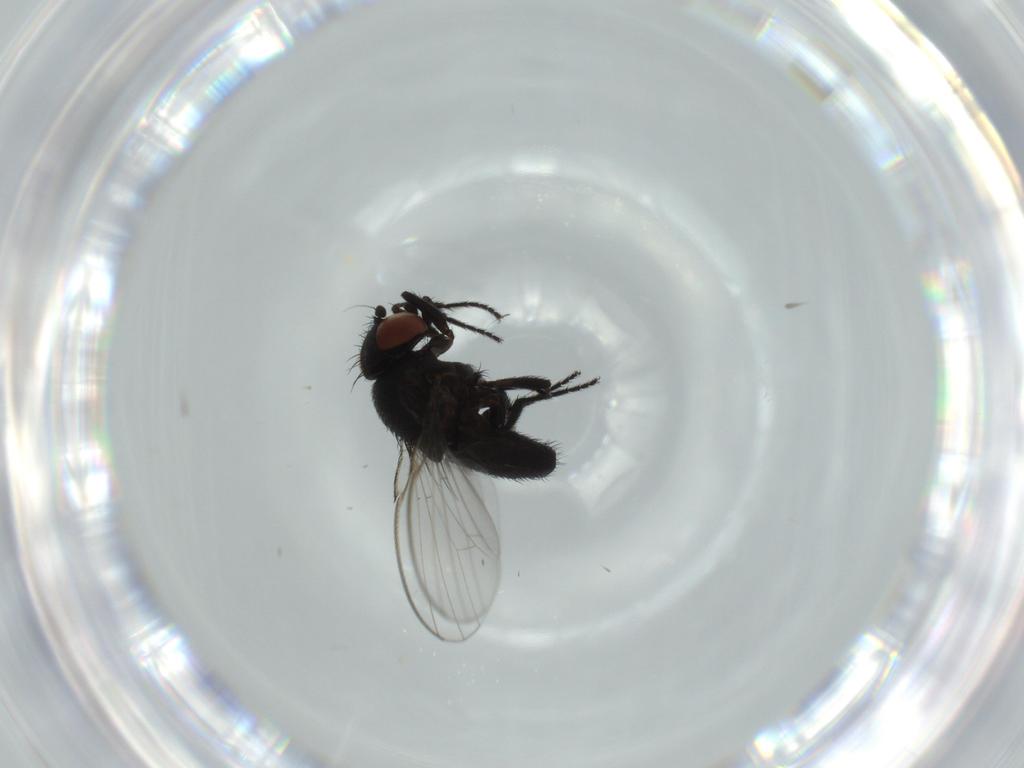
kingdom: Animalia
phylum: Arthropoda
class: Insecta
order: Diptera
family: Milichiidae
